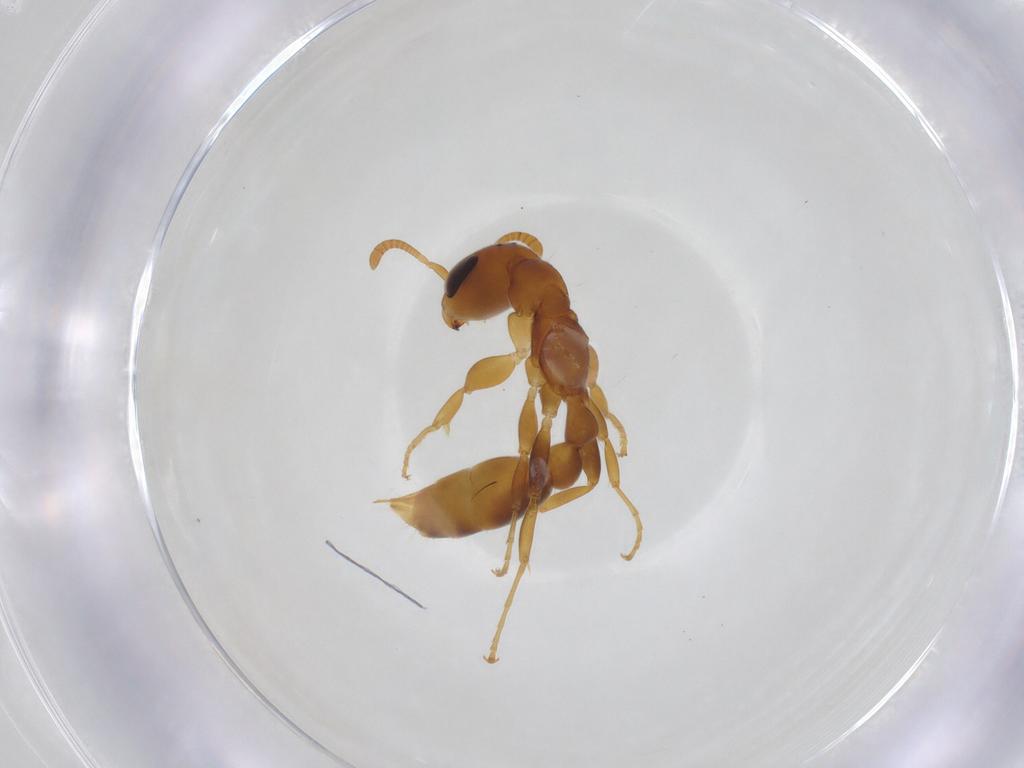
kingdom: Animalia
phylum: Arthropoda
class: Insecta
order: Hymenoptera
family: Formicidae
